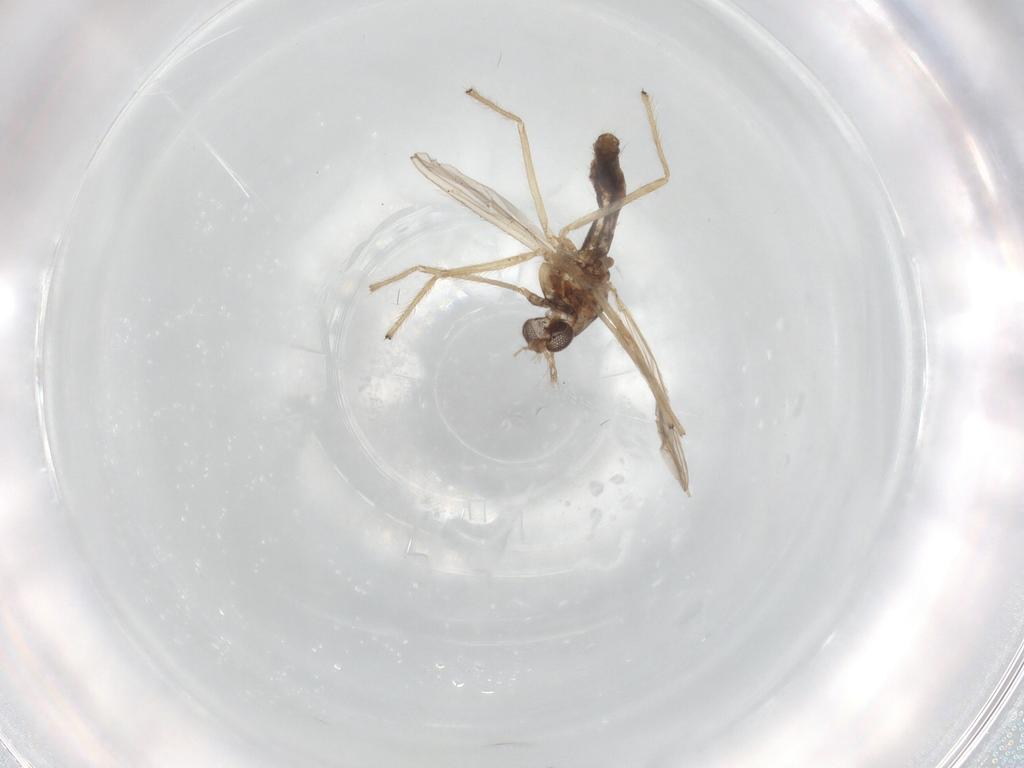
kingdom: Animalia
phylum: Arthropoda
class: Insecta
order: Diptera
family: Chironomidae
